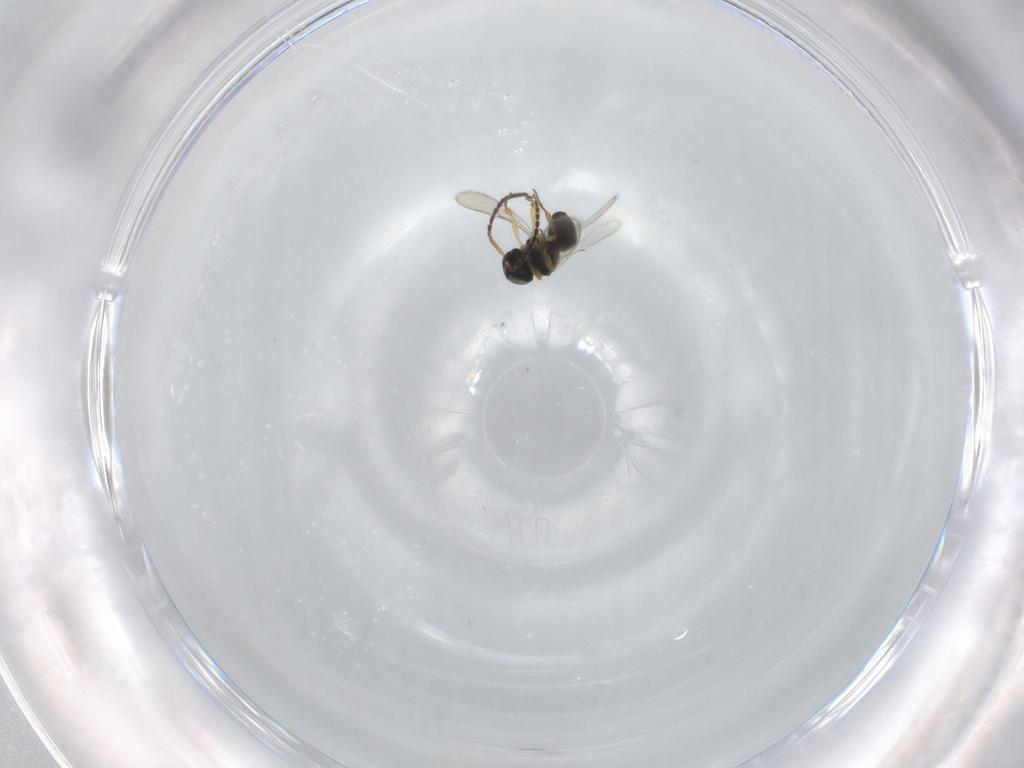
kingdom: Animalia
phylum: Arthropoda
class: Insecta
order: Hymenoptera
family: Scelionidae
